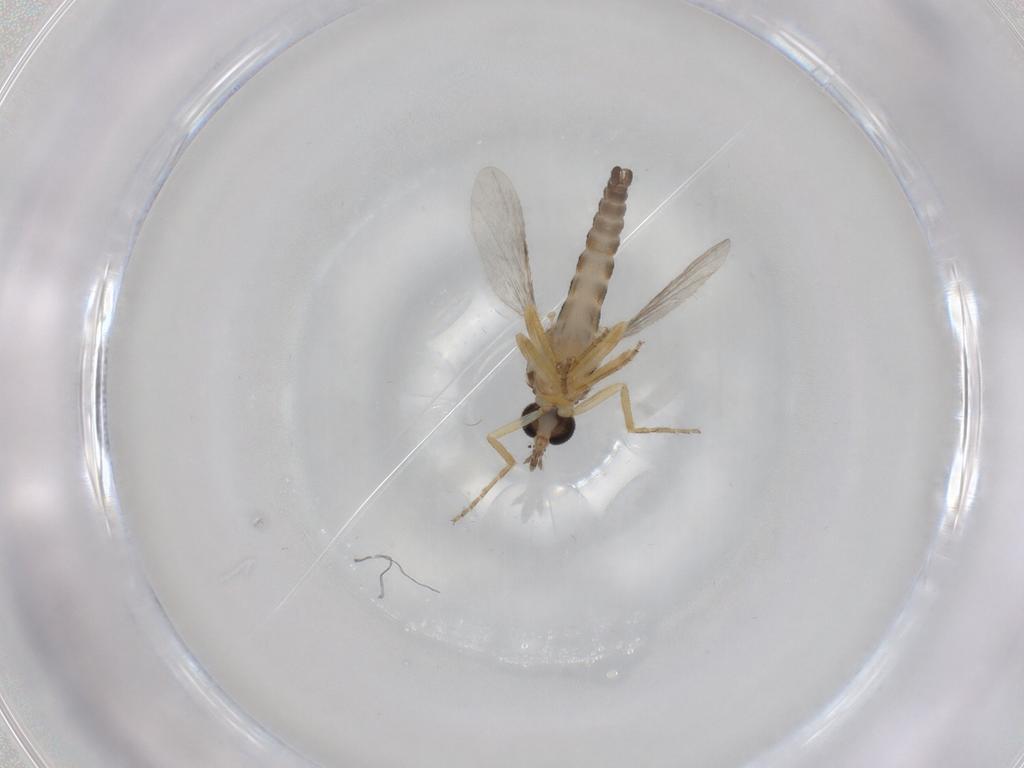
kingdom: Animalia
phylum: Arthropoda
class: Insecta
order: Diptera
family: Ceratopogonidae
